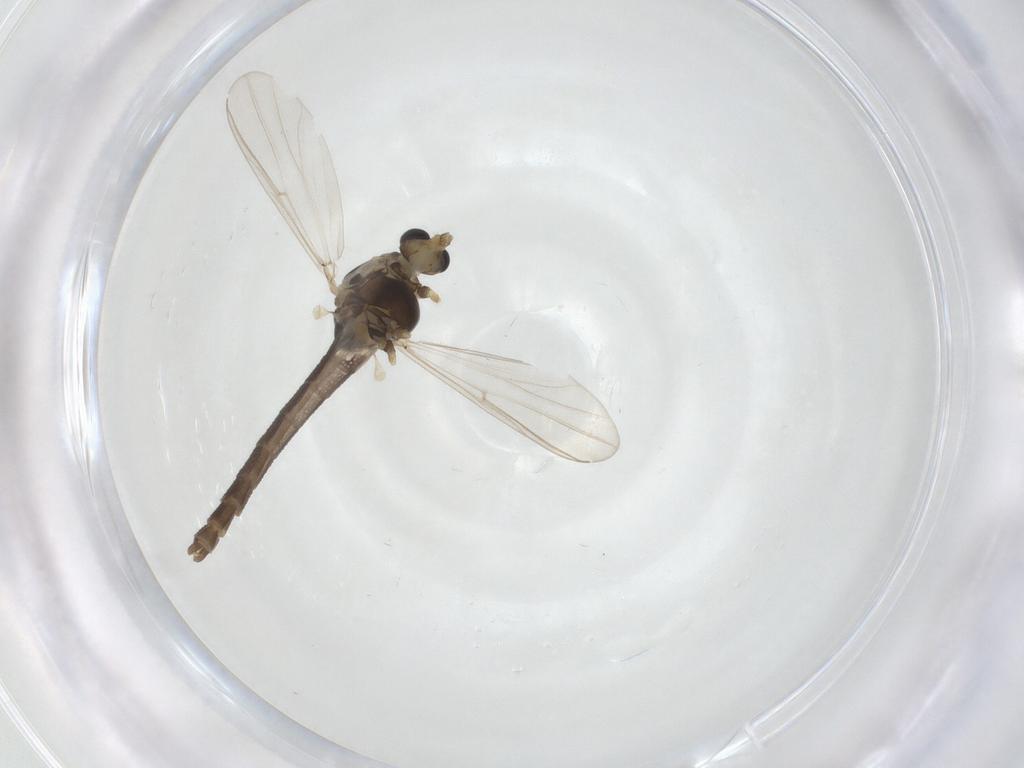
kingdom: Animalia
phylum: Arthropoda
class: Insecta
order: Diptera
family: Chironomidae
